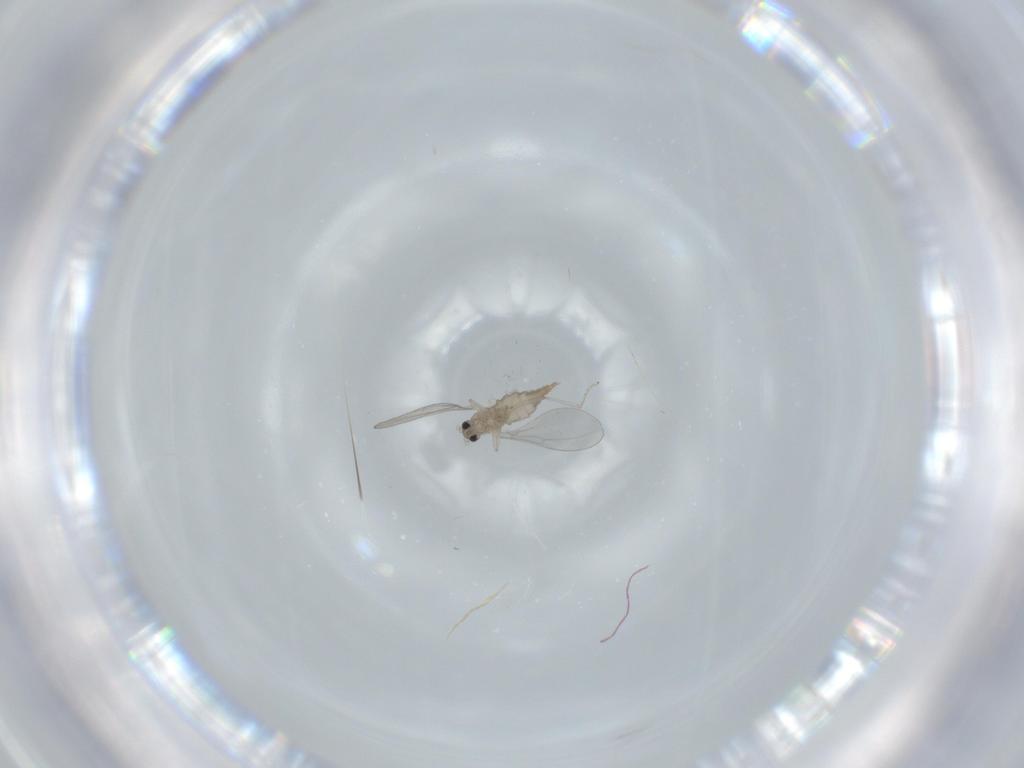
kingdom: Animalia
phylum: Arthropoda
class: Insecta
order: Diptera
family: Cecidomyiidae
